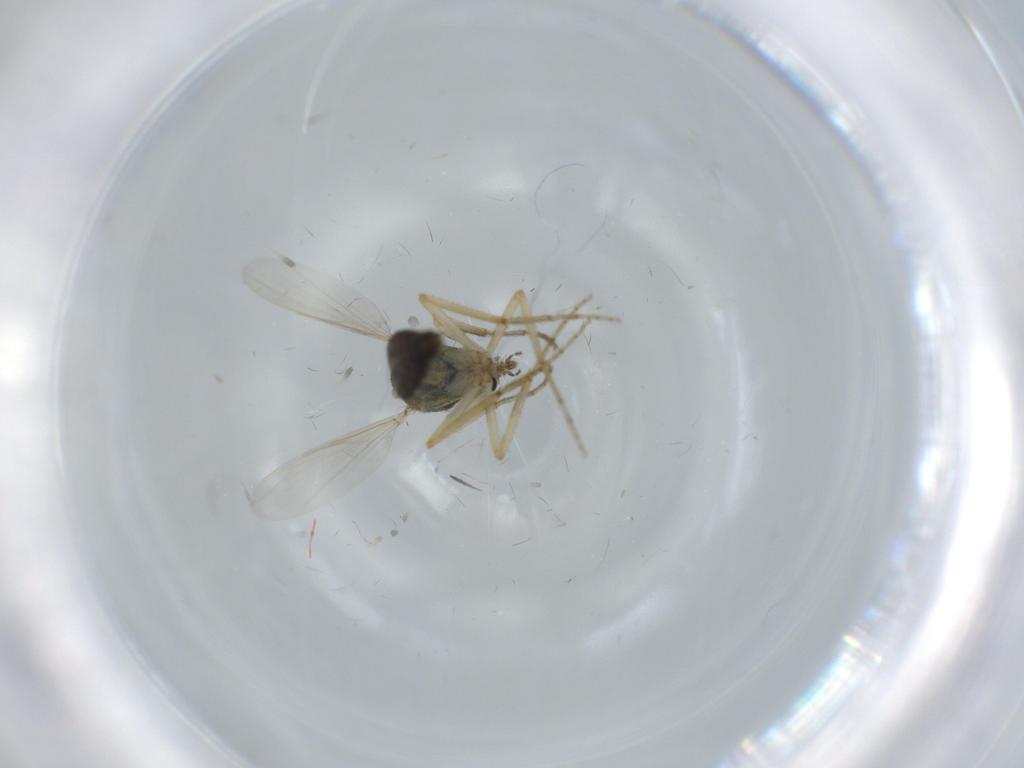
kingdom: Animalia
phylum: Arthropoda
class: Insecta
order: Diptera
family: Ceratopogonidae
